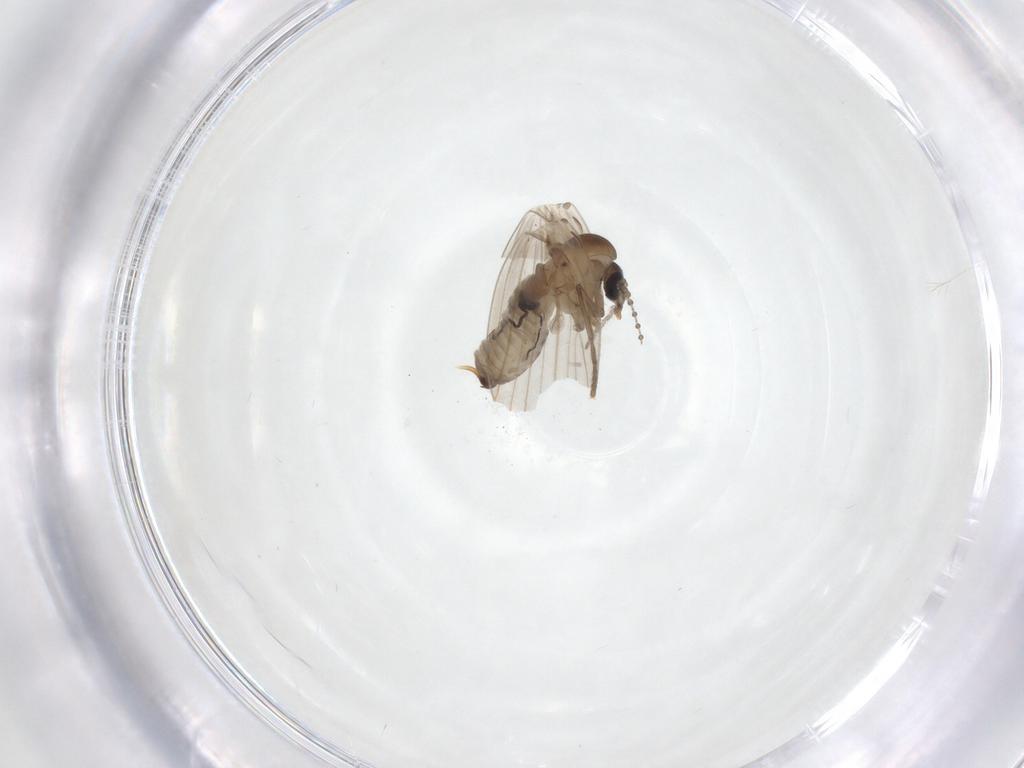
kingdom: Animalia
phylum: Arthropoda
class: Insecta
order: Diptera
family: Psychodidae
